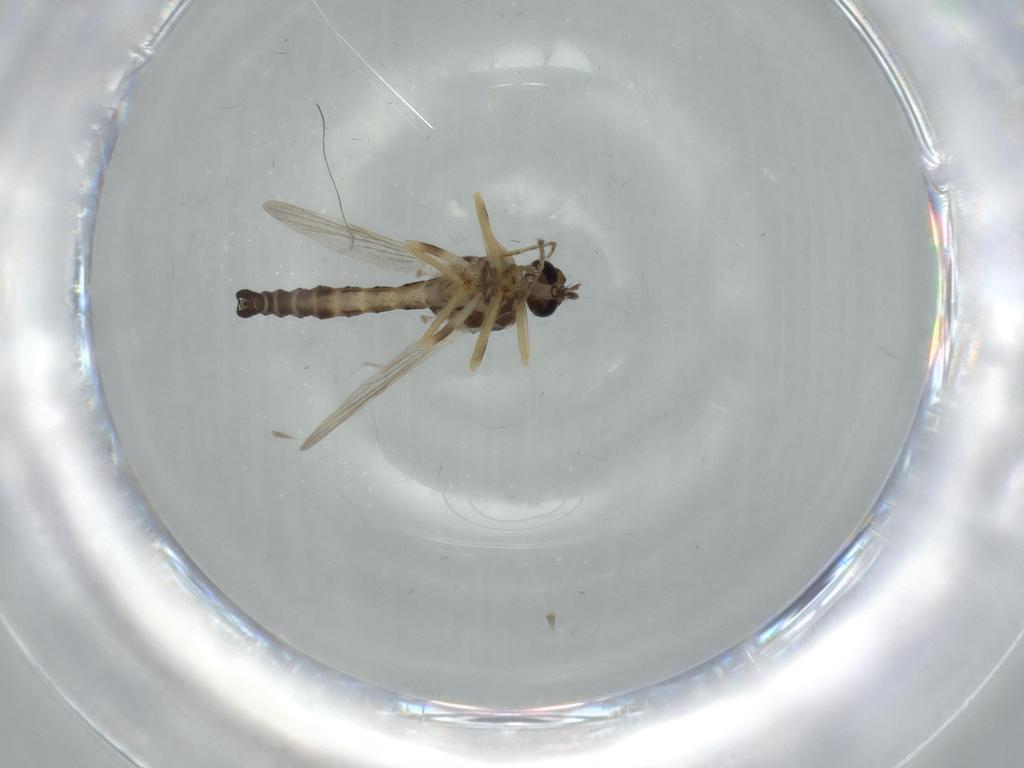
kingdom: Animalia
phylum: Arthropoda
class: Insecta
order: Diptera
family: Ceratopogonidae
